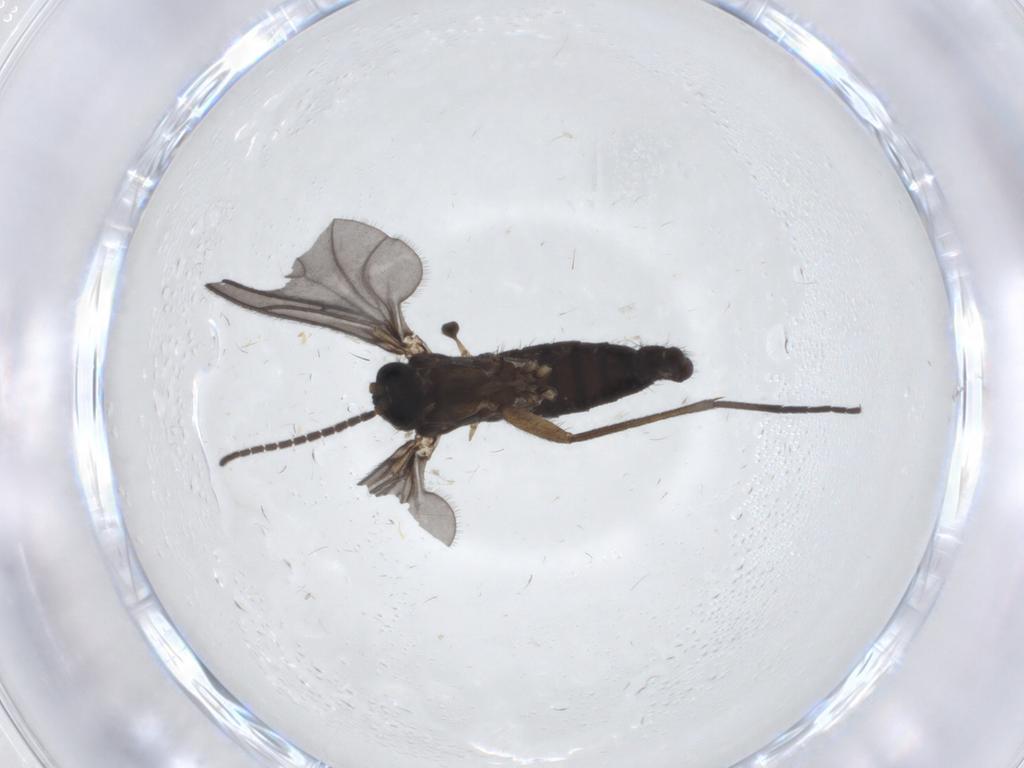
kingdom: Animalia
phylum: Arthropoda
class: Insecta
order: Diptera
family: Sciaridae
